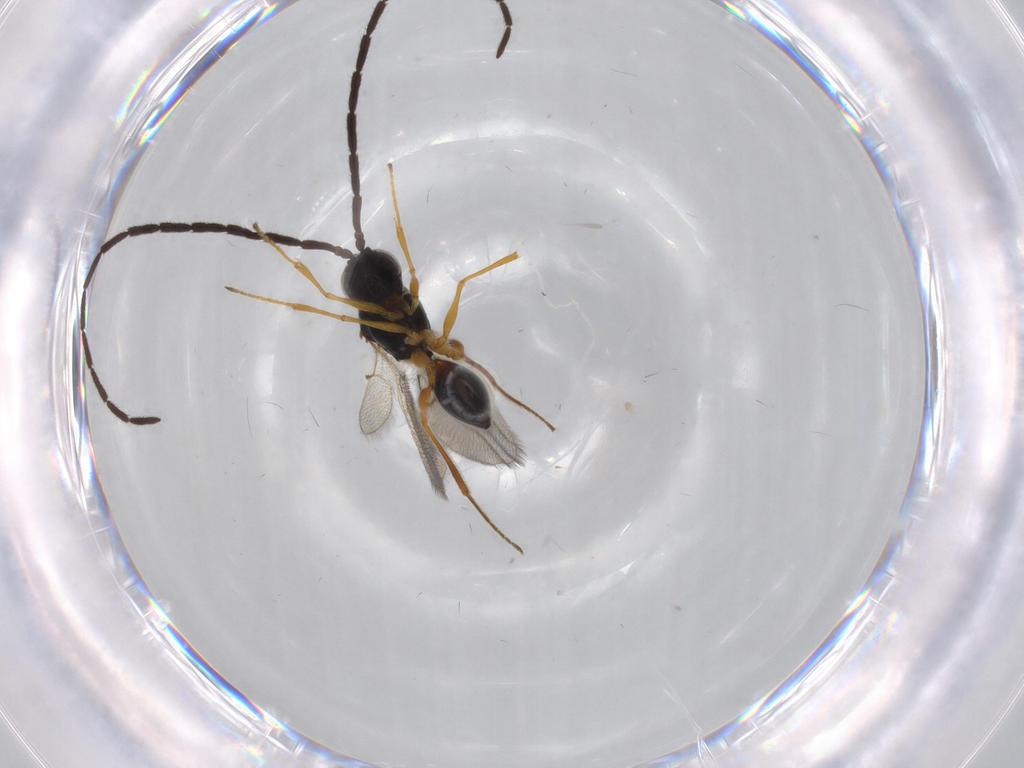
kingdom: Animalia
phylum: Arthropoda
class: Insecta
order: Hymenoptera
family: Figitidae
